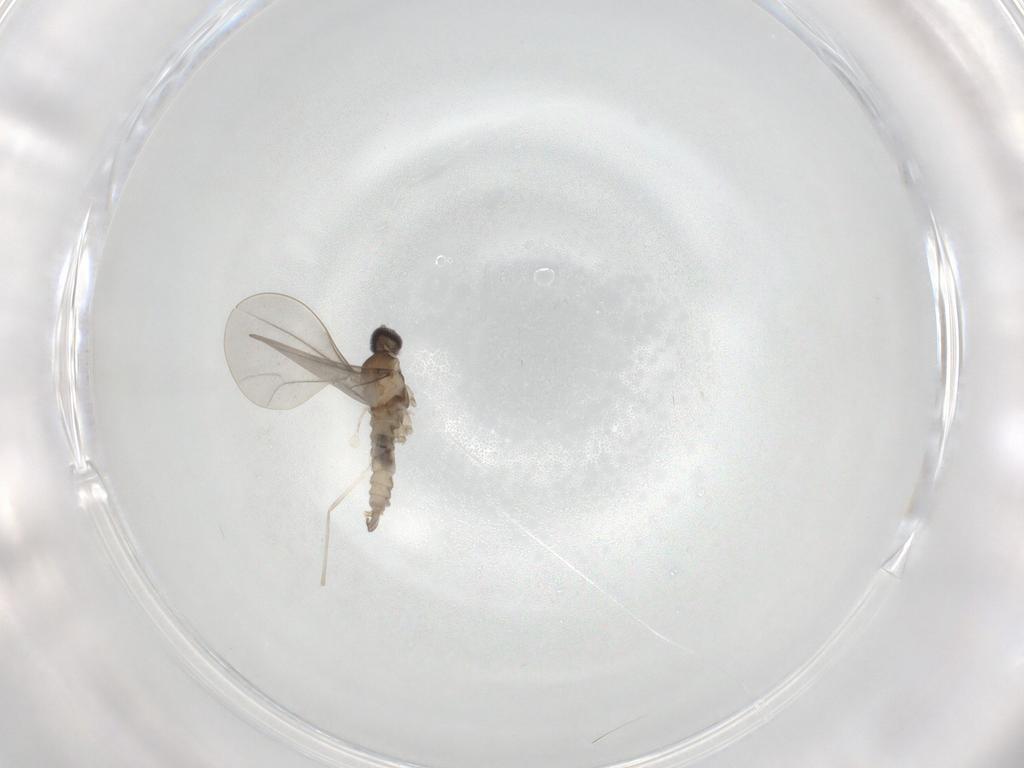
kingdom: Animalia
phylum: Arthropoda
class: Insecta
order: Diptera
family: Cecidomyiidae
